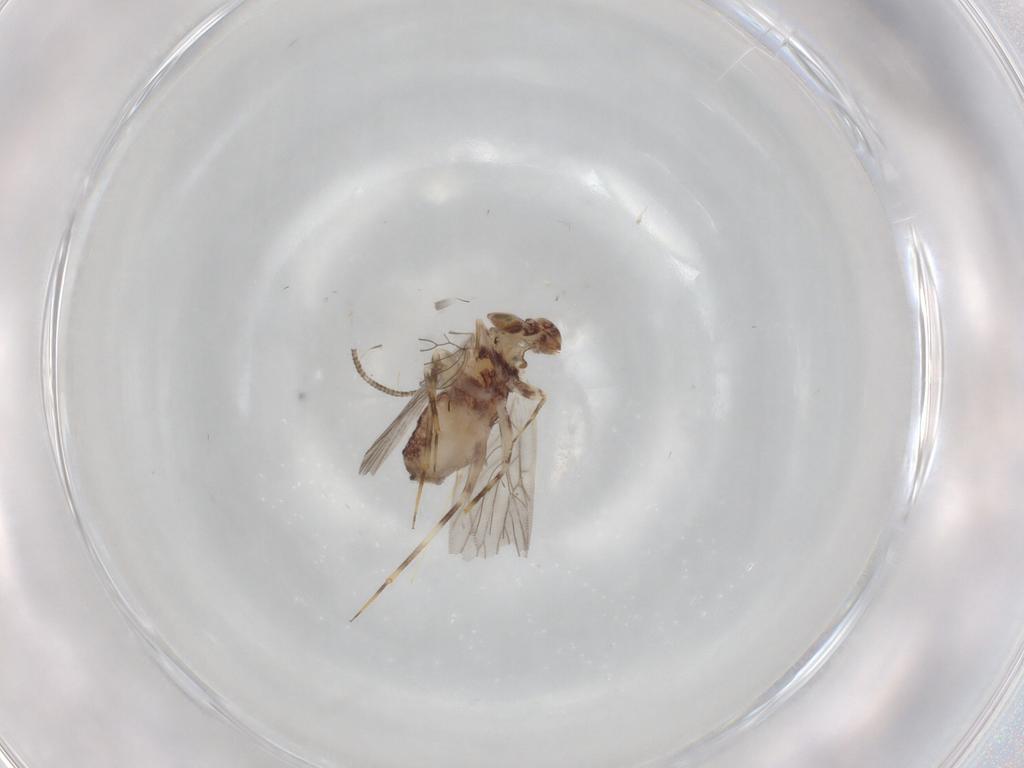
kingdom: Animalia
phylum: Arthropoda
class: Insecta
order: Psocodea
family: Lepidopsocidae
